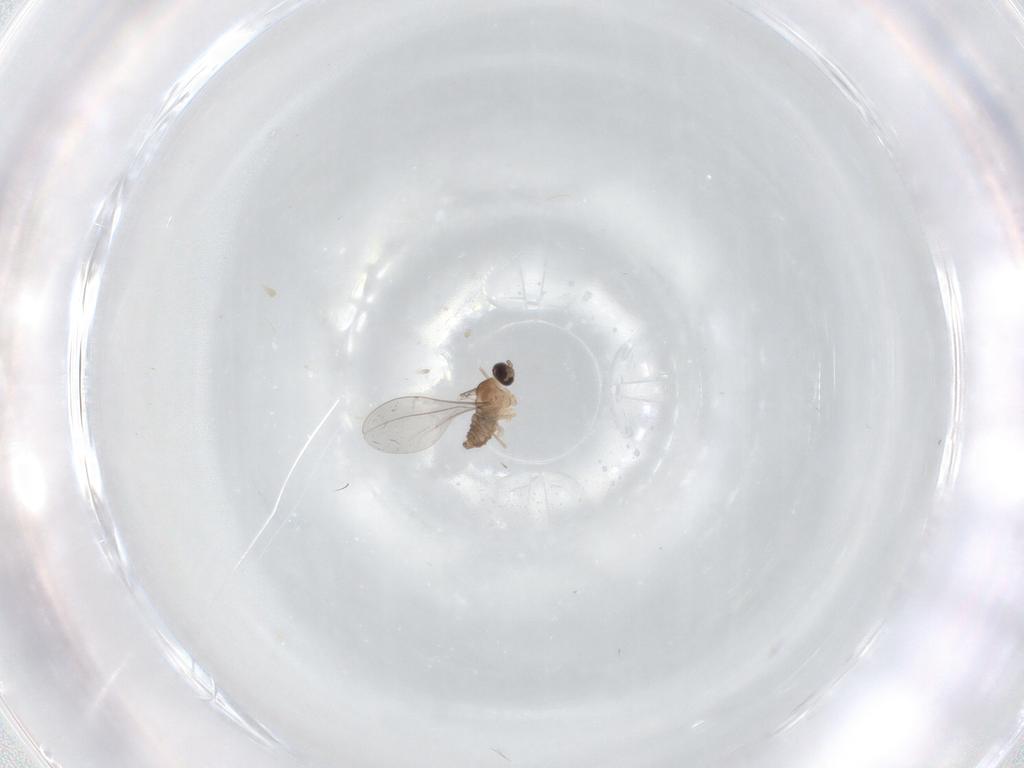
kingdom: Animalia
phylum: Arthropoda
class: Insecta
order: Diptera
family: Cecidomyiidae
